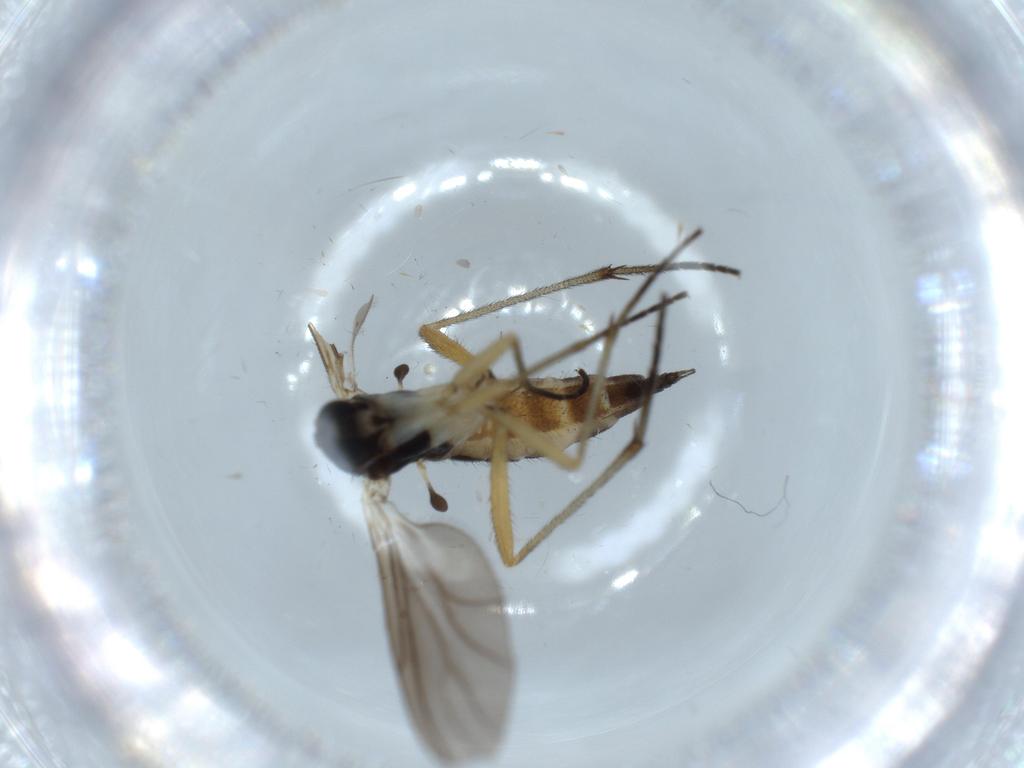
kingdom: Animalia
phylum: Arthropoda
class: Insecta
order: Diptera
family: Sciaridae
